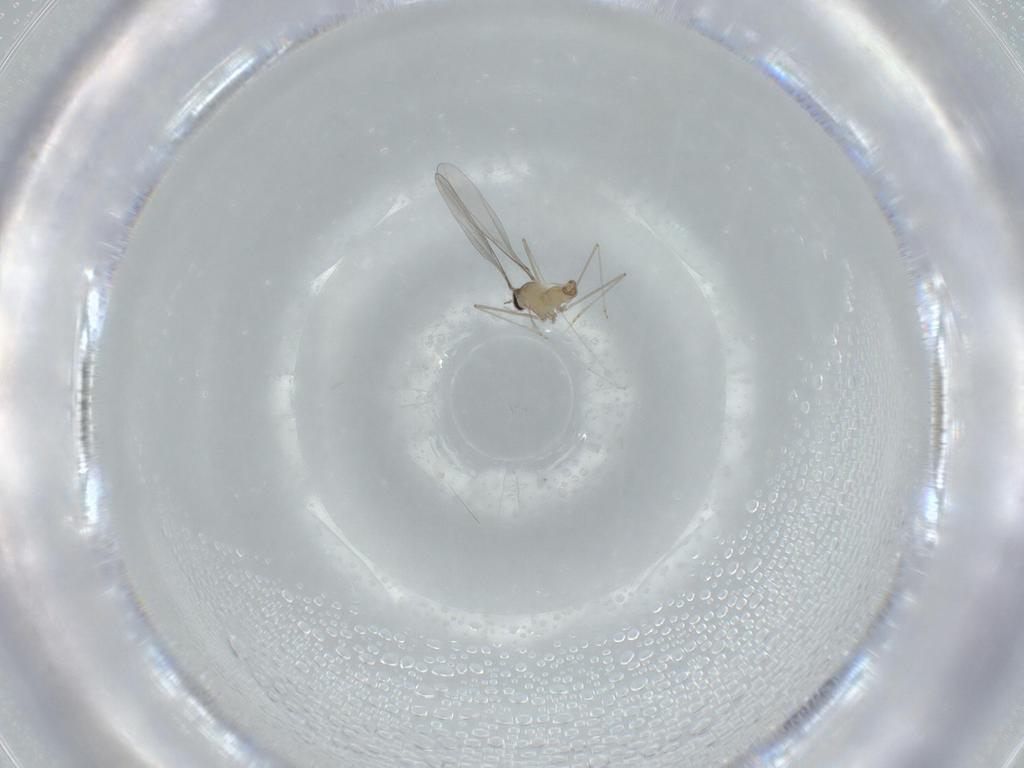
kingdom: Animalia
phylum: Arthropoda
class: Insecta
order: Diptera
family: Cecidomyiidae
